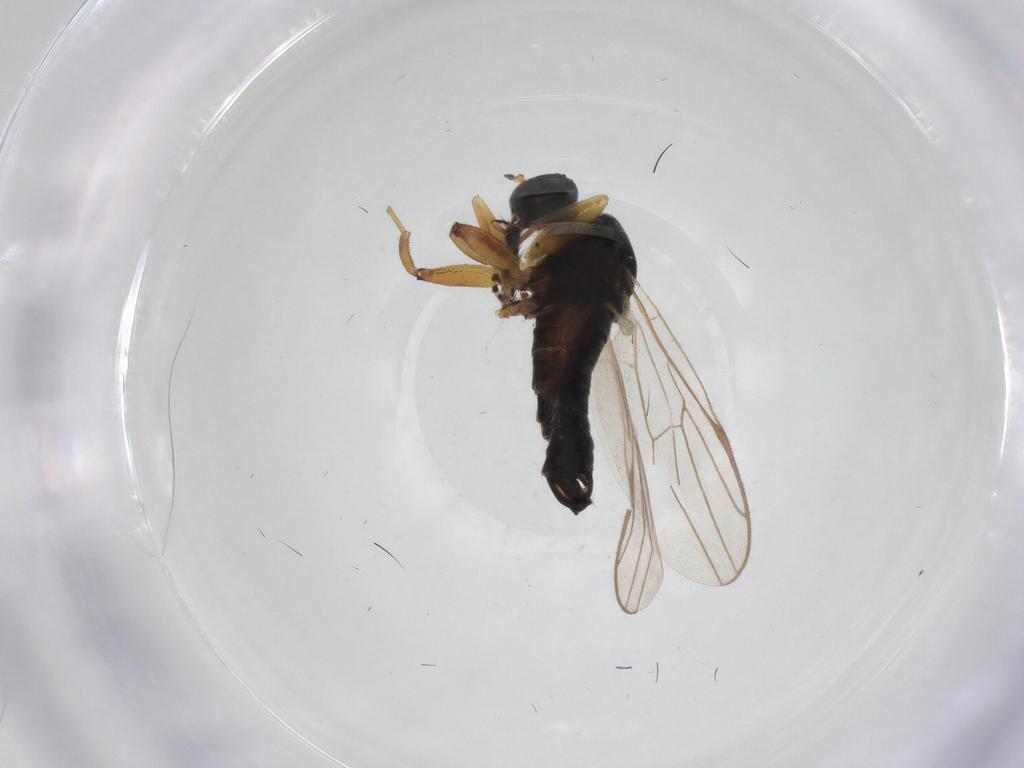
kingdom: Animalia
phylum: Arthropoda
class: Insecta
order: Diptera
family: Hybotidae
